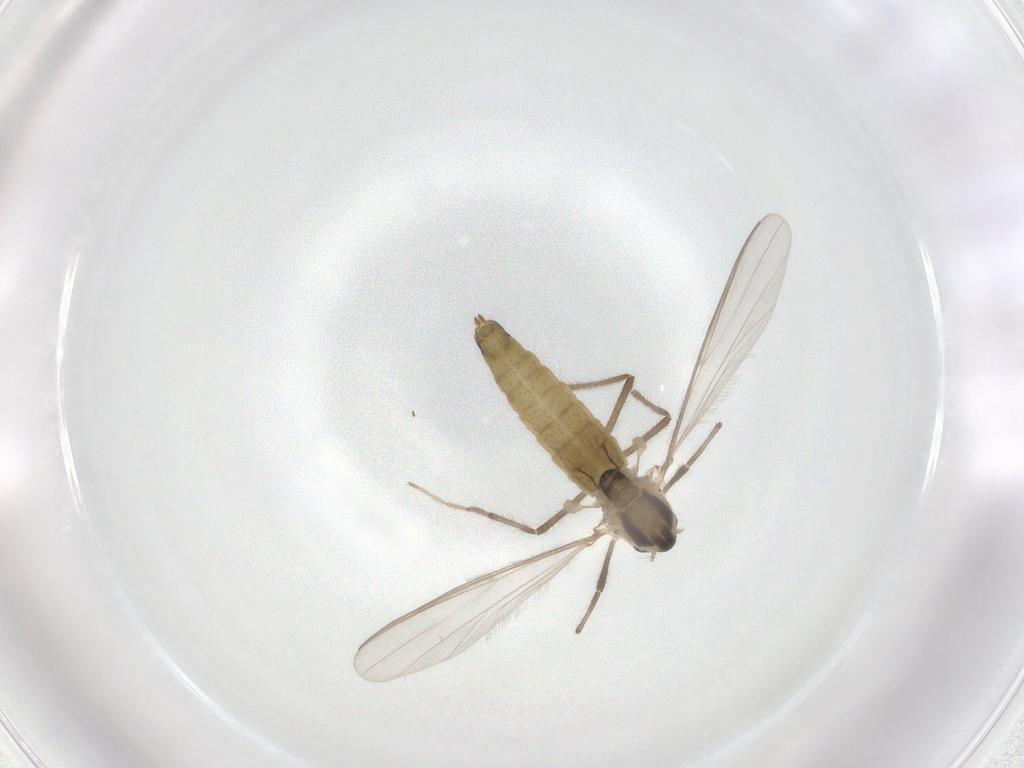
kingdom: Animalia
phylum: Arthropoda
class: Insecta
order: Diptera
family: Chironomidae
